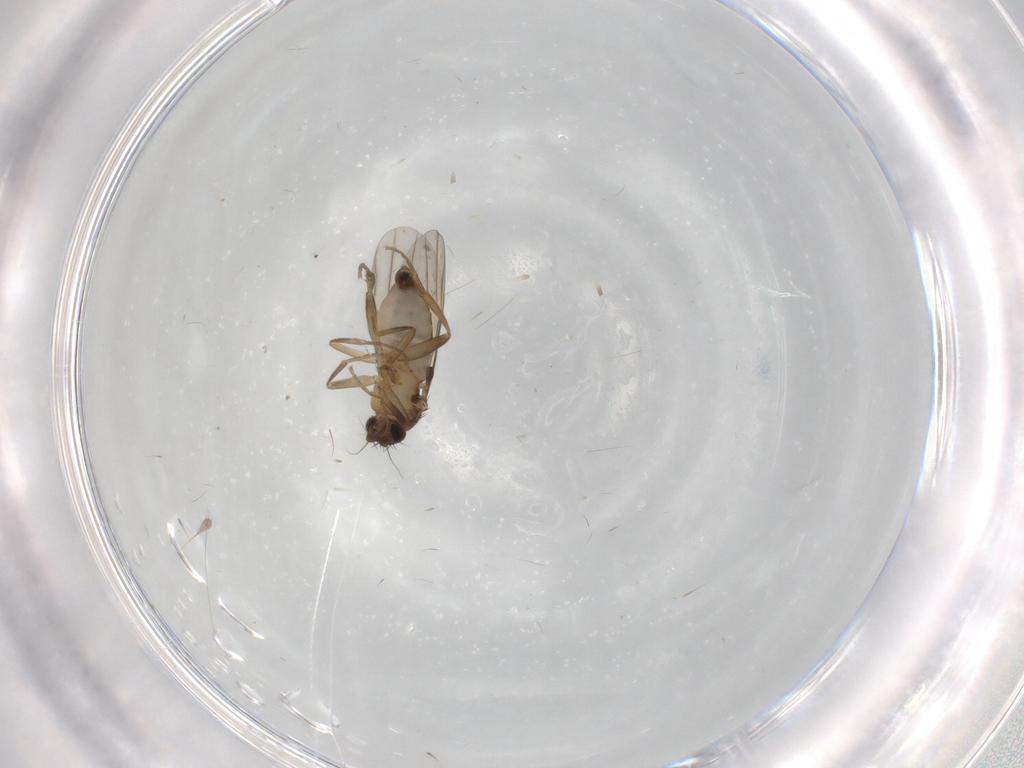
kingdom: Animalia
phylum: Arthropoda
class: Insecta
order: Diptera
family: Phoridae
